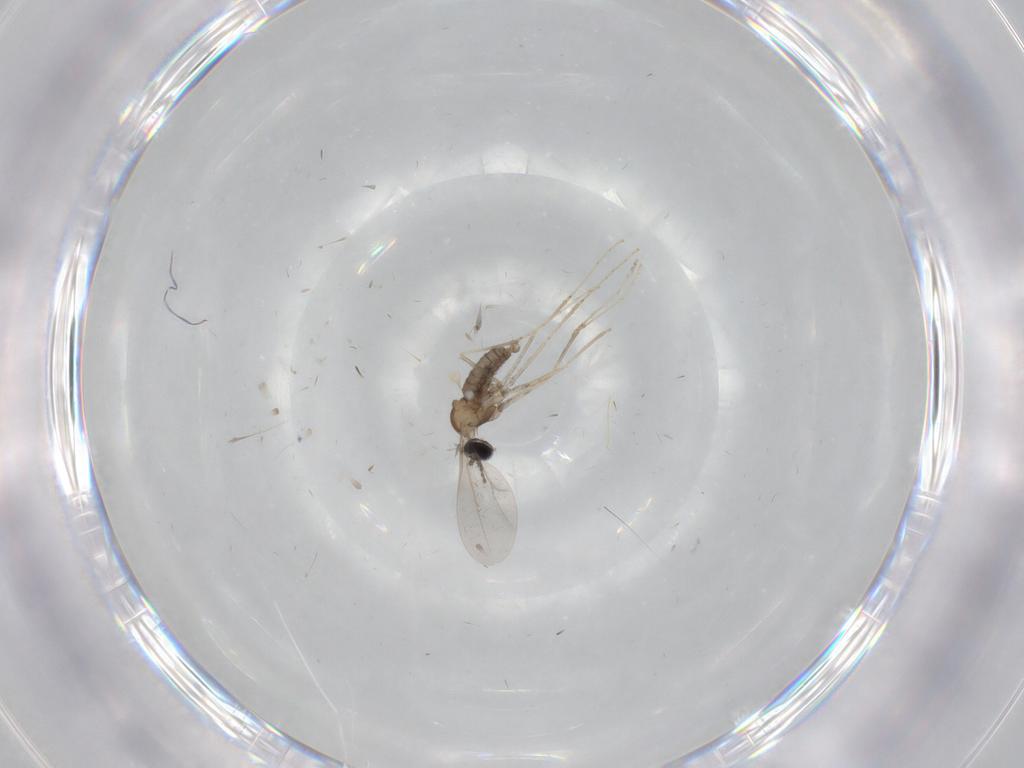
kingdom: Animalia
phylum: Arthropoda
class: Insecta
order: Diptera
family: Cecidomyiidae
